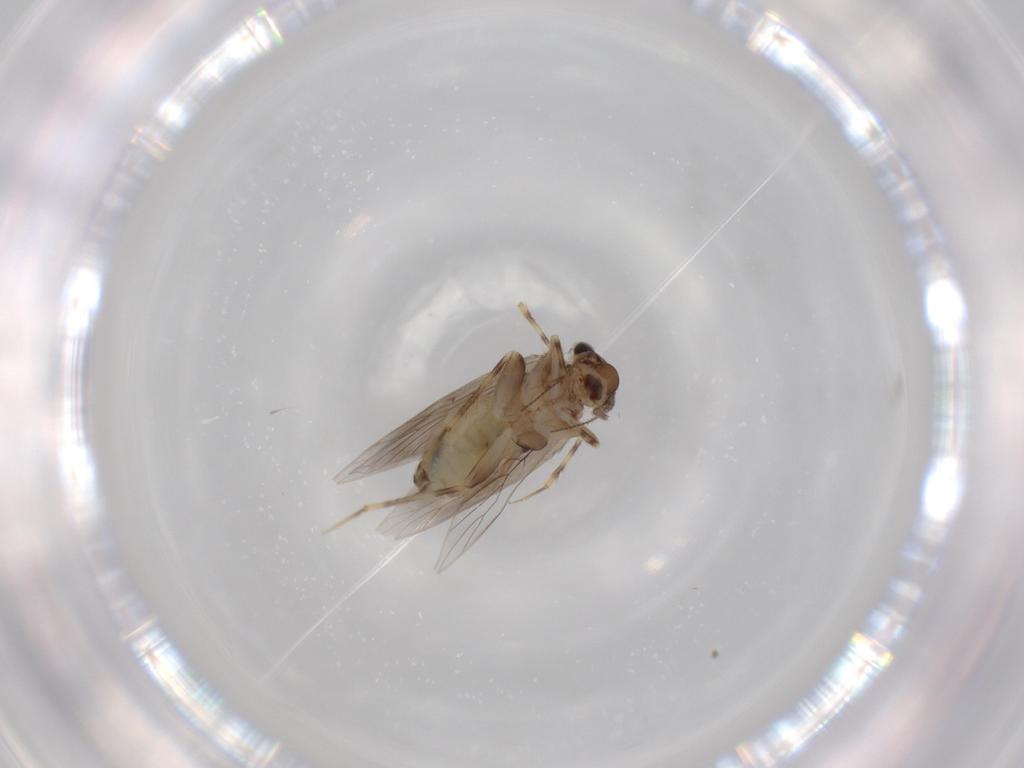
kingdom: Animalia
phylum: Arthropoda
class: Insecta
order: Psocodea
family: Lepidopsocidae
